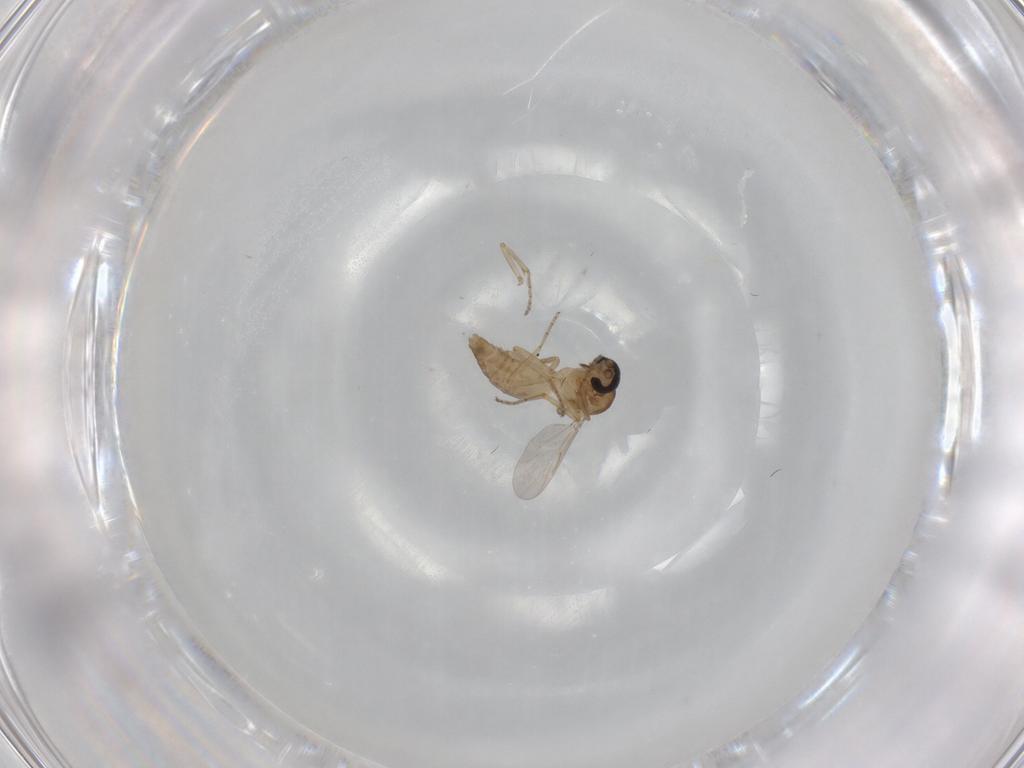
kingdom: Animalia
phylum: Arthropoda
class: Insecta
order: Diptera
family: Ceratopogonidae
